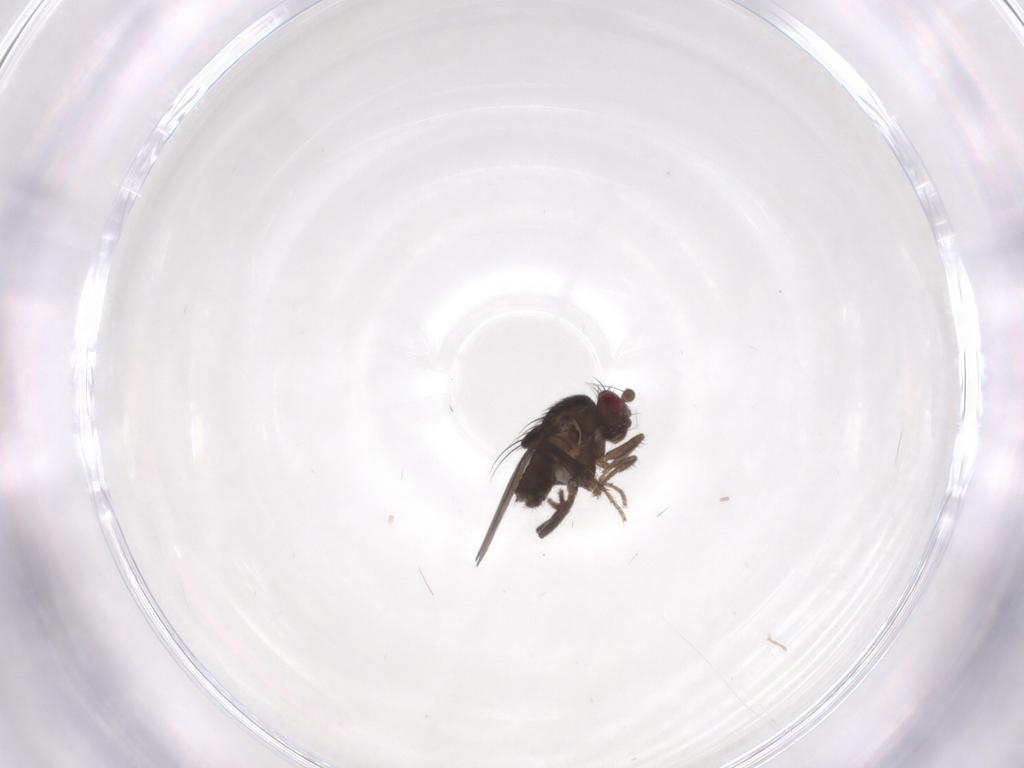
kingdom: Animalia
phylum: Arthropoda
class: Insecta
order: Diptera
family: Sphaeroceridae
